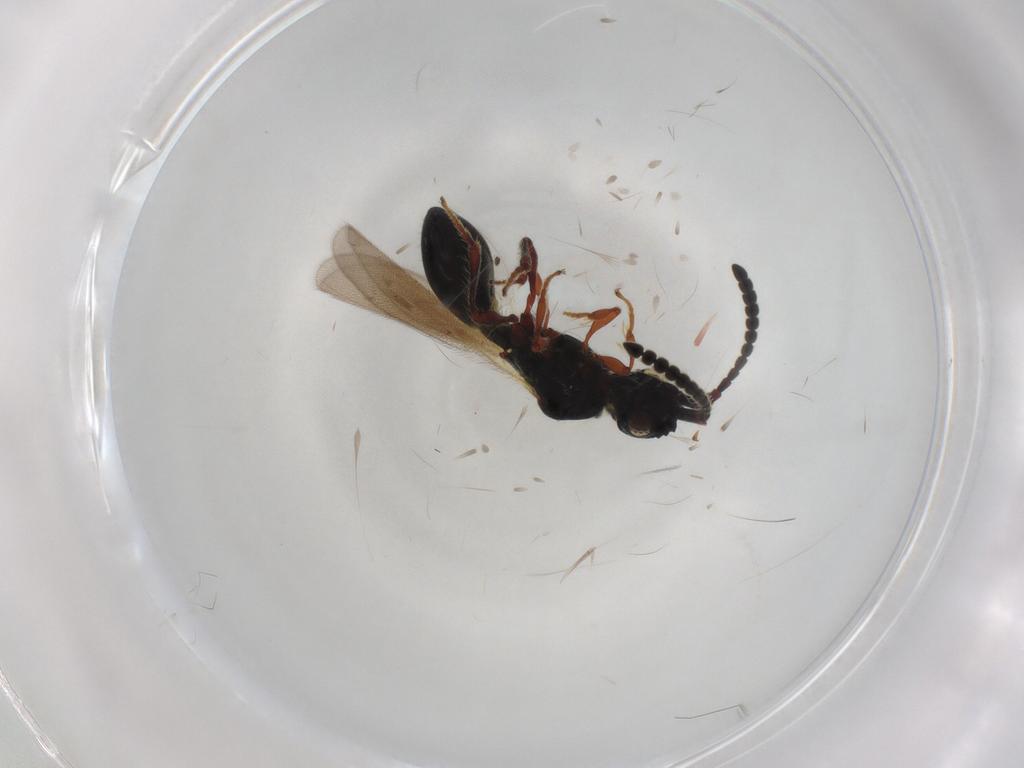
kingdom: Animalia
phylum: Arthropoda
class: Insecta
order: Hymenoptera
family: Diapriidae
